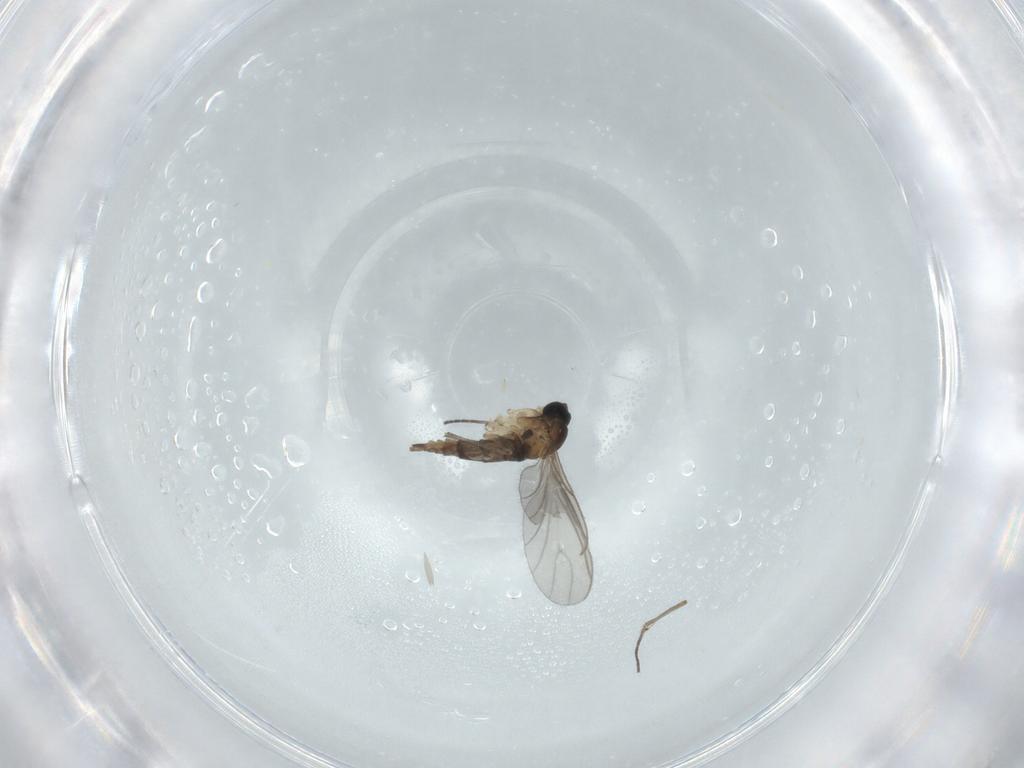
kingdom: Animalia
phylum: Arthropoda
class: Insecta
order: Diptera
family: Sciaridae
